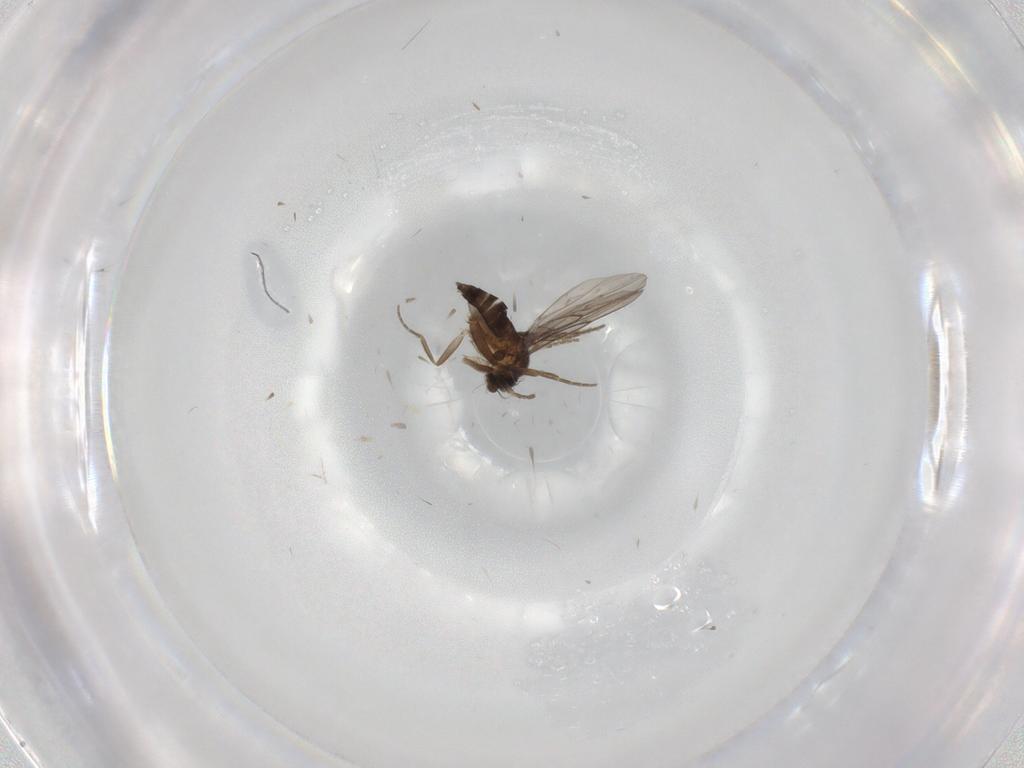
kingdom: Animalia
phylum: Arthropoda
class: Insecta
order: Diptera
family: Phoridae
